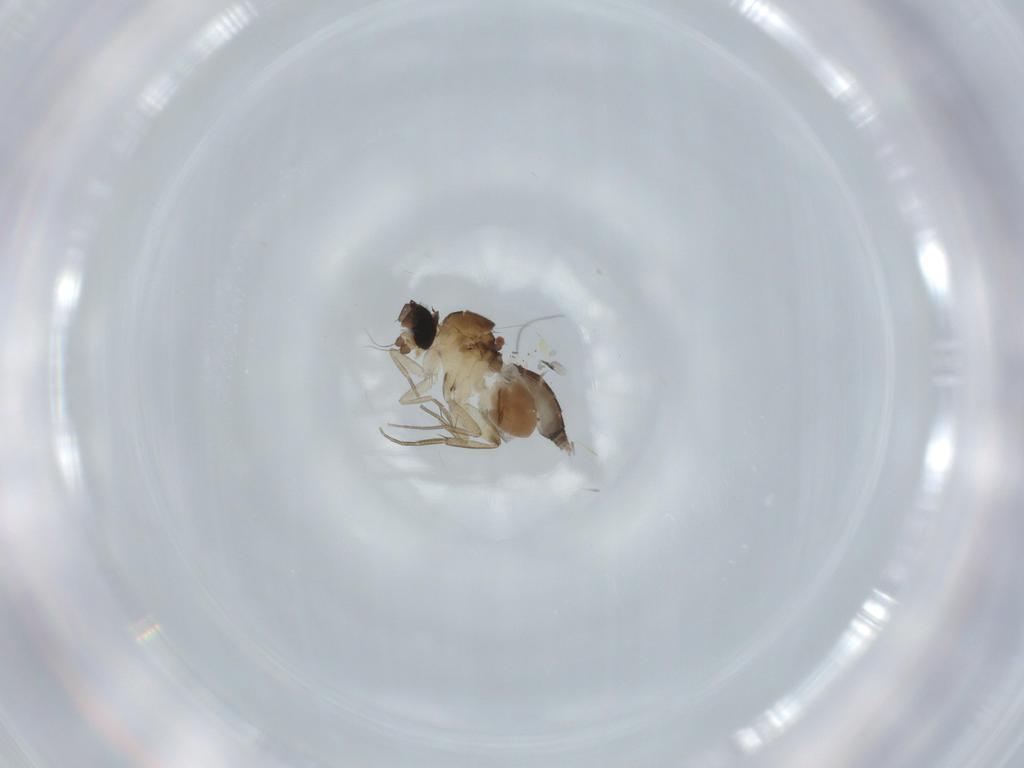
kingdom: Animalia
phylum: Arthropoda
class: Insecta
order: Diptera
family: Phoridae
